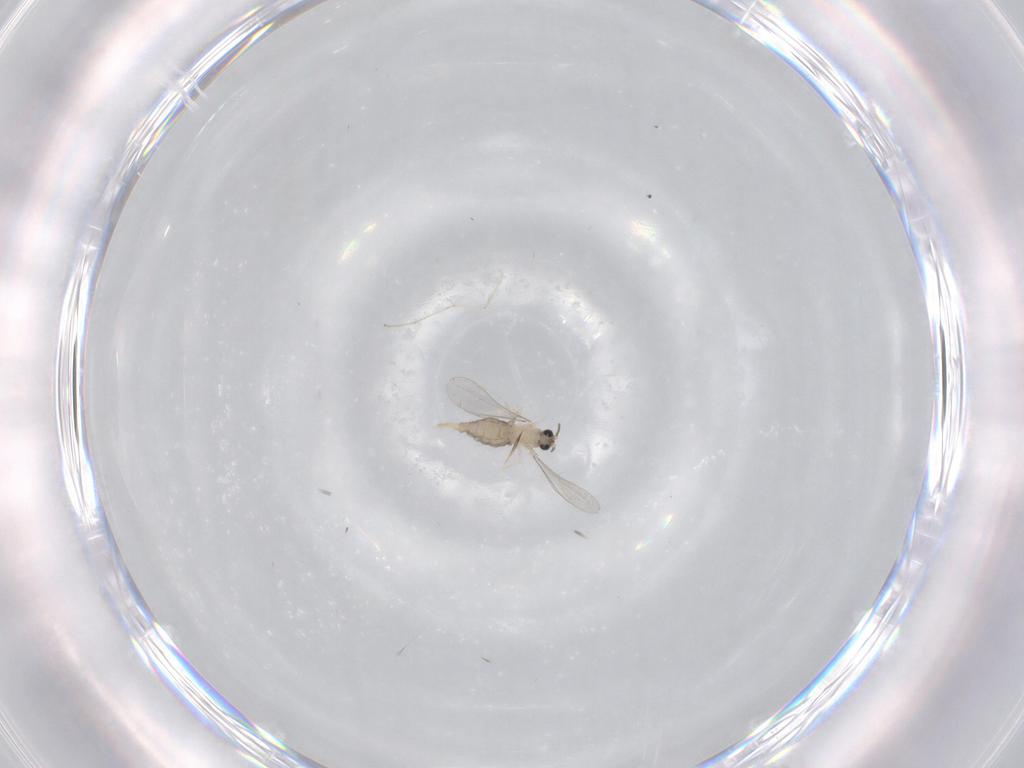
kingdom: Animalia
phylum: Arthropoda
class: Insecta
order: Diptera
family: Cecidomyiidae
